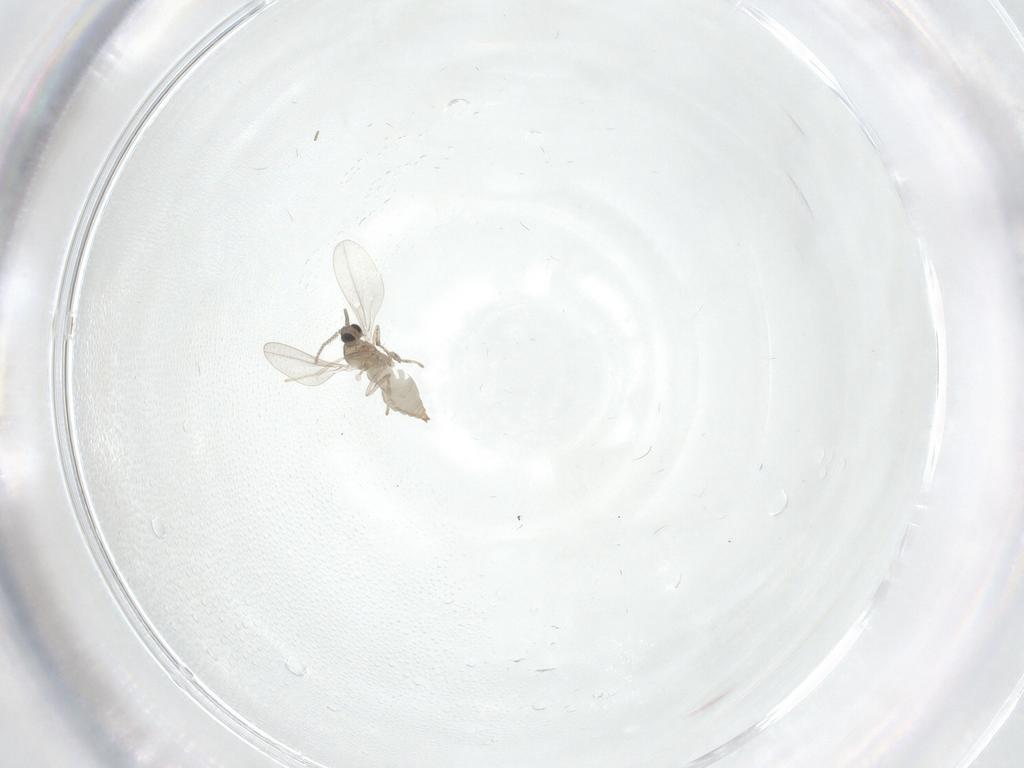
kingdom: Animalia
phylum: Arthropoda
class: Insecta
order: Diptera
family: Cecidomyiidae
